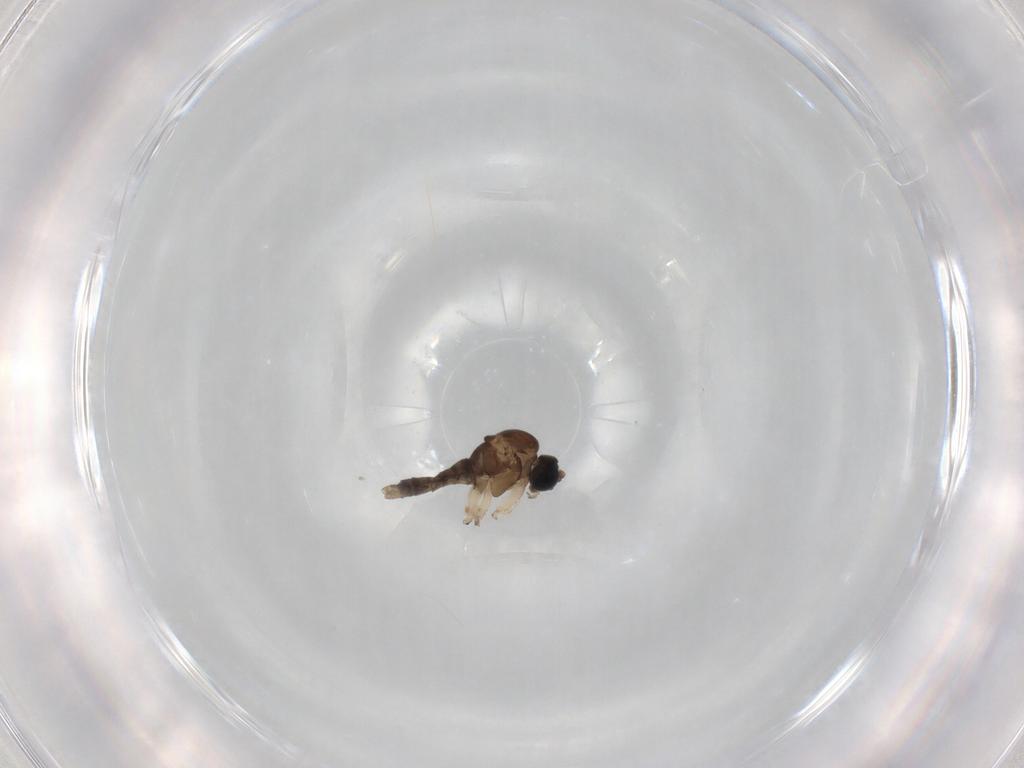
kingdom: Animalia
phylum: Arthropoda
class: Insecta
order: Diptera
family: Sciaridae
